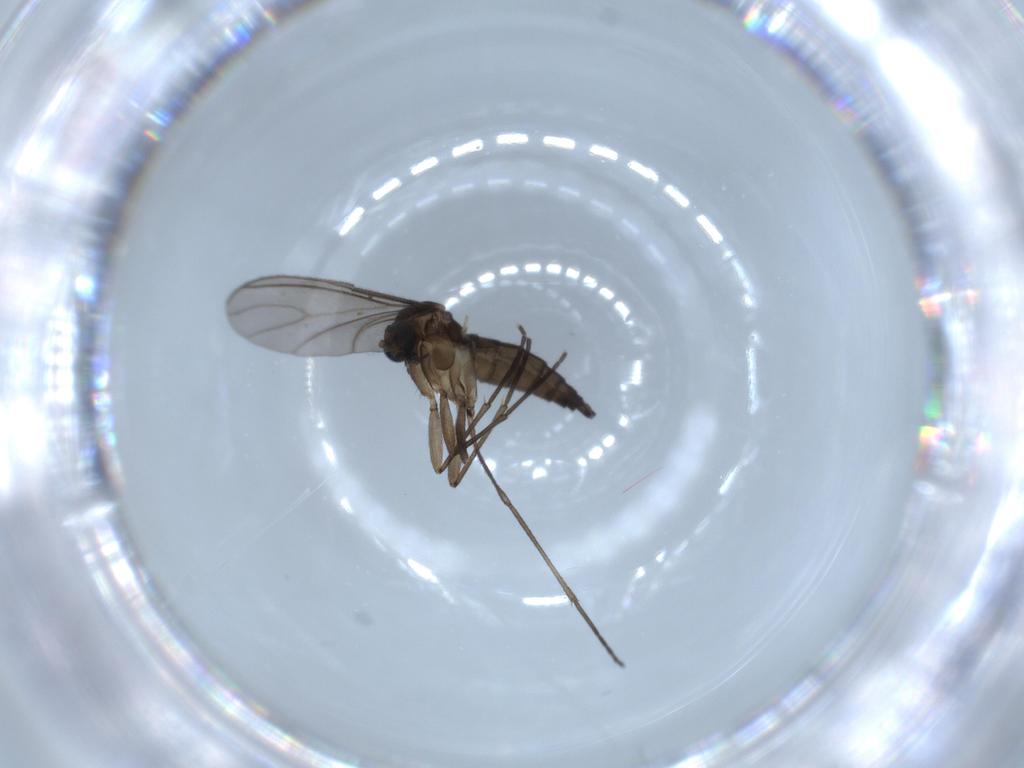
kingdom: Animalia
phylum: Arthropoda
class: Insecta
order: Diptera
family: Sciaridae
